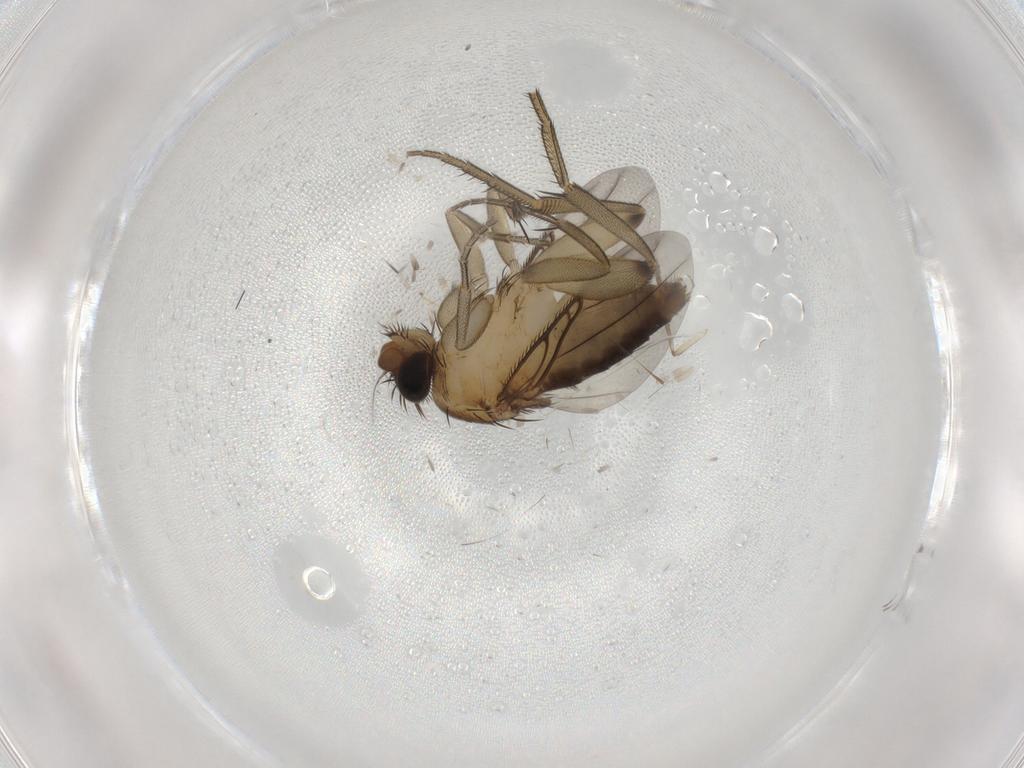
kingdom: Animalia
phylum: Arthropoda
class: Insecta
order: Diptera
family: Phoridae
